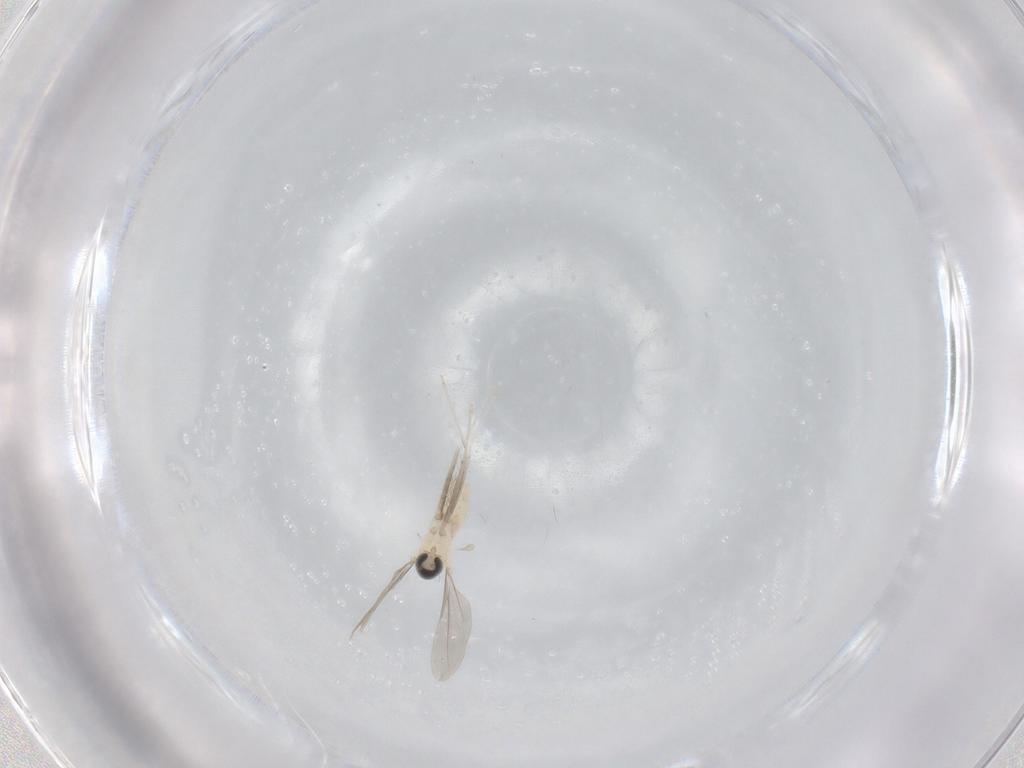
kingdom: Animalia
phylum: Arthropoda
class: Insecta
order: Diptera
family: Cecidomyiidae
